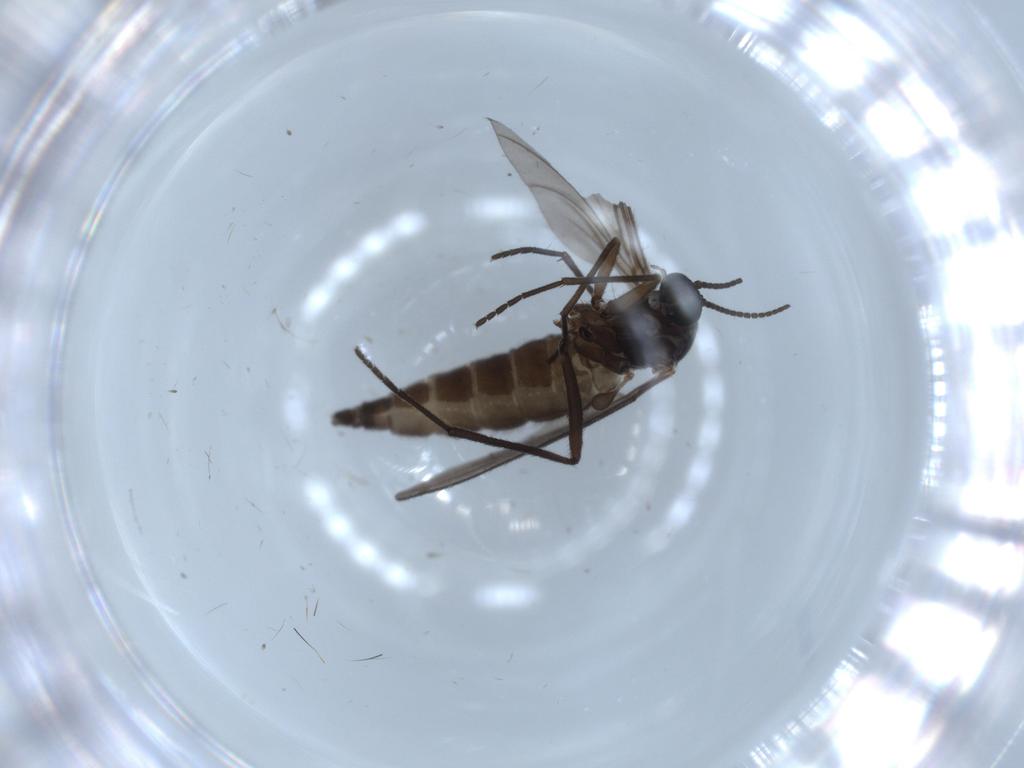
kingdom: Animalia
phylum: Arthropoda
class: Insecta
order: Diptera
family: Sciaridae
